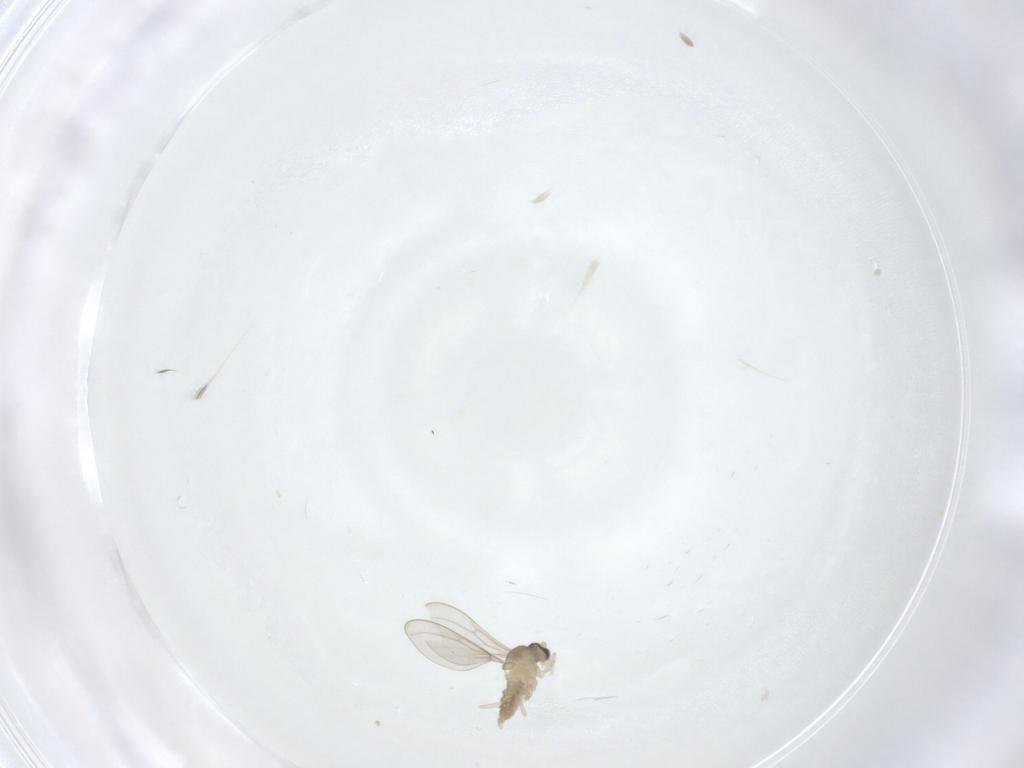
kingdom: Animalia
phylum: Arthropoda
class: Insecta
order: Diptera
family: Cecidomyiidae
